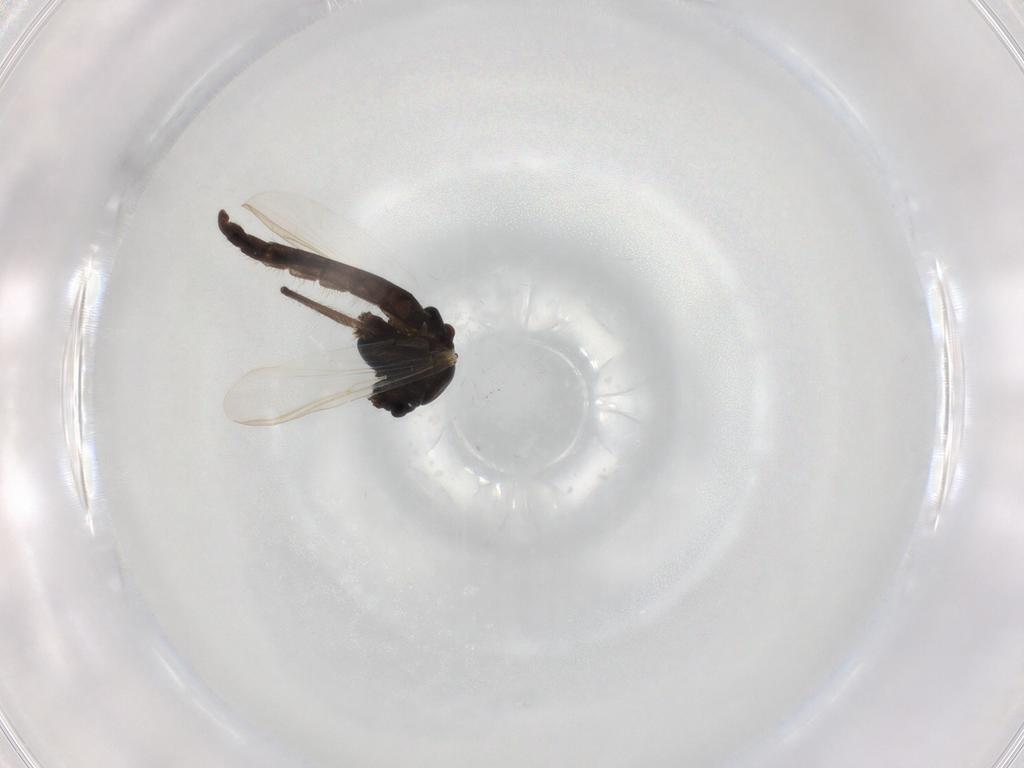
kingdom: Animalia
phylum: Arthropoda
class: Insecta
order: Diptera
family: Chironomidae
